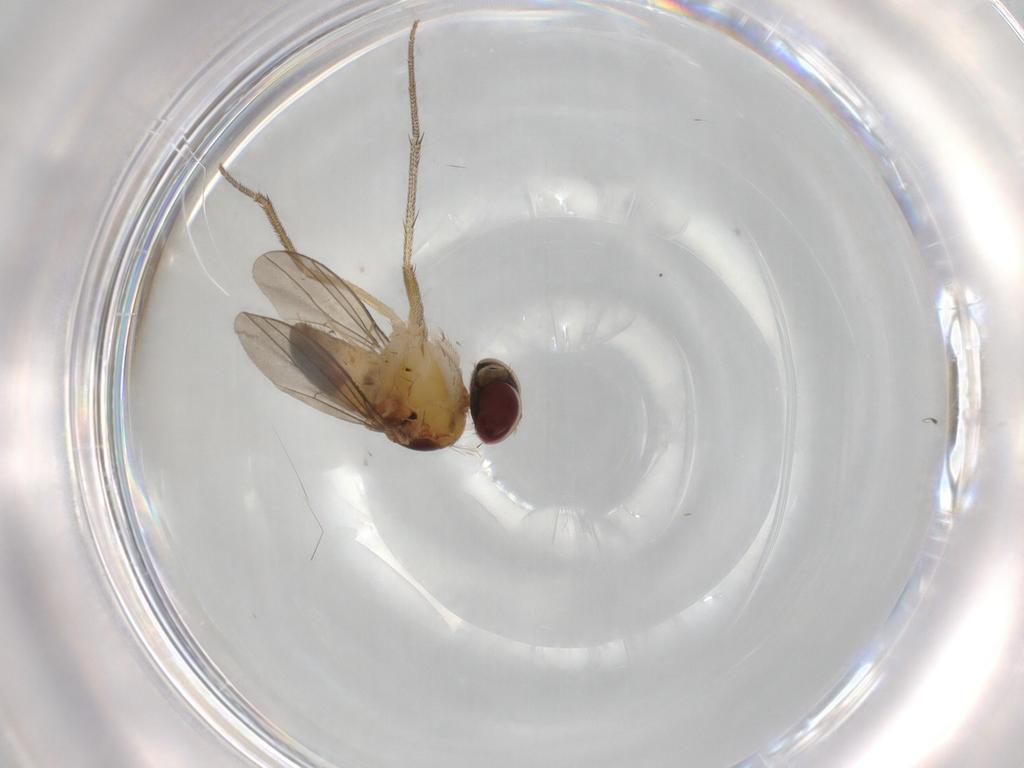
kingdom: Animalia
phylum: Arthropoda
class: Insecta
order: Diptera
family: Dolichopodidae
